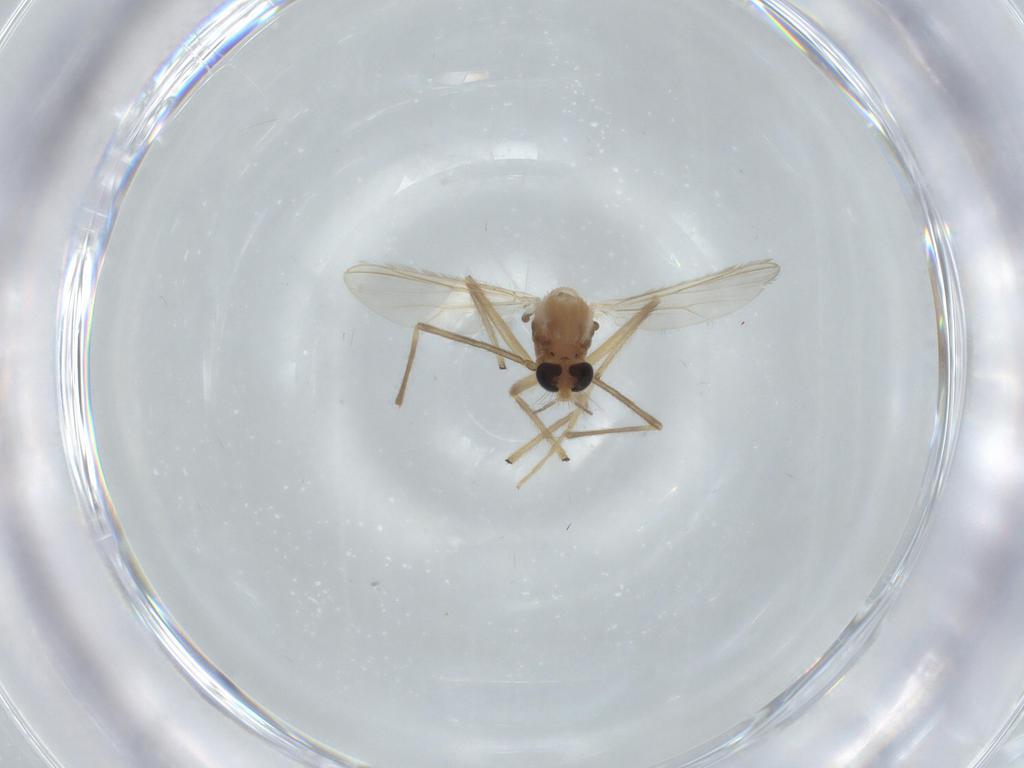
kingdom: Animalia
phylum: Arthropoda
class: Insecta
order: Diptera
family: Chironomidae
